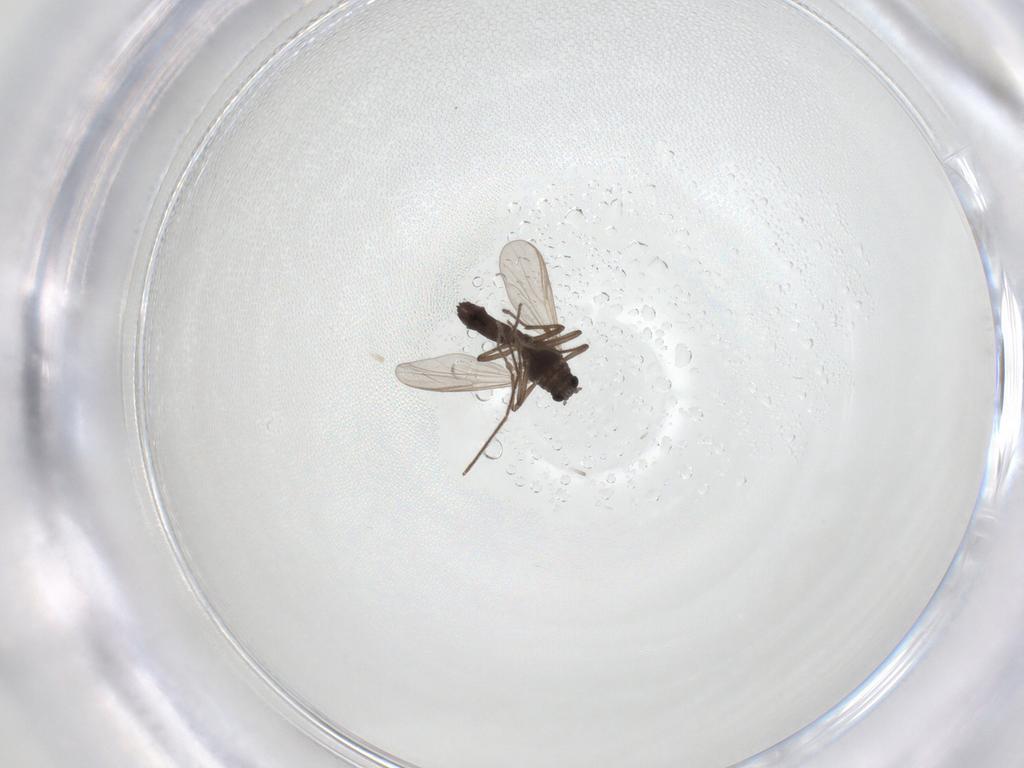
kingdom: Animalia
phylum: Arthropoda
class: Insecta
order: Diptera
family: Chironomidae
